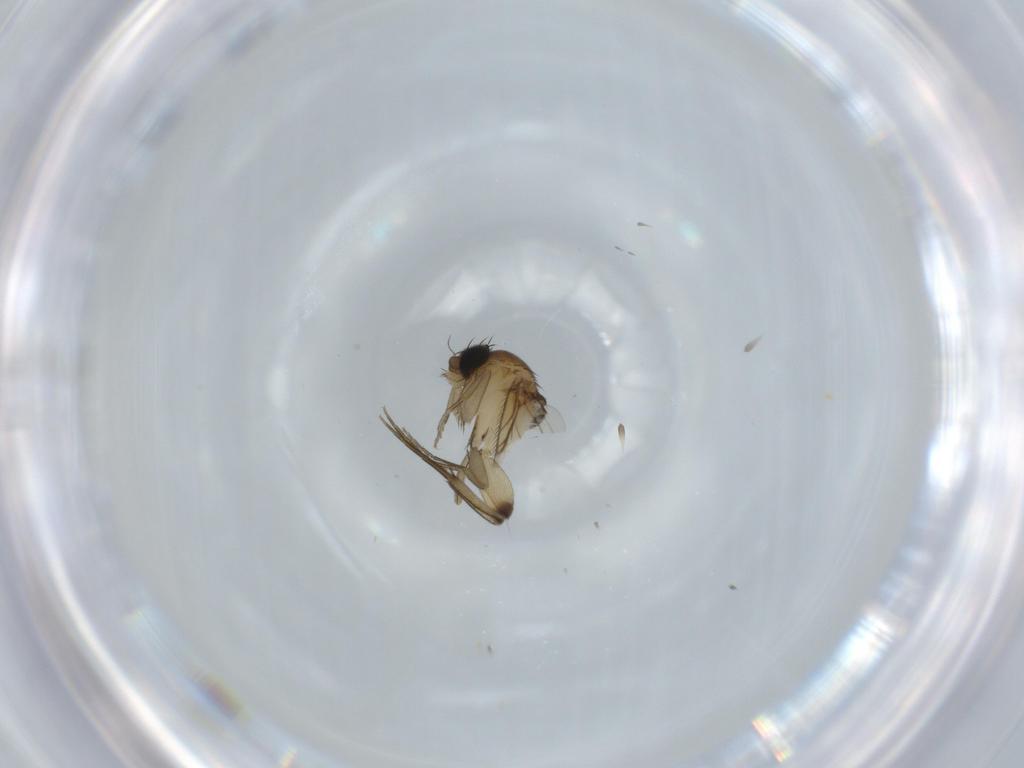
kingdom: Animalia
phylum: Arthropoda
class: Insecta
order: Diptera
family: Phoridae
